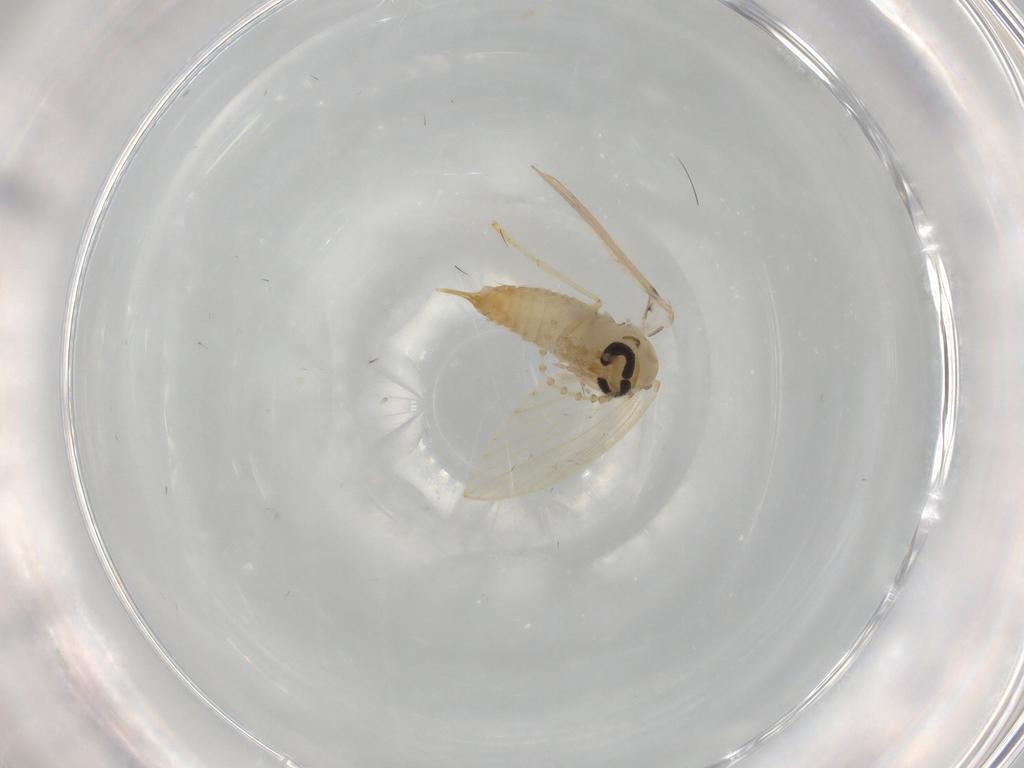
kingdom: Animalia
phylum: Arthropoda
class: Insecta
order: Diptera
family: Psychodidae
